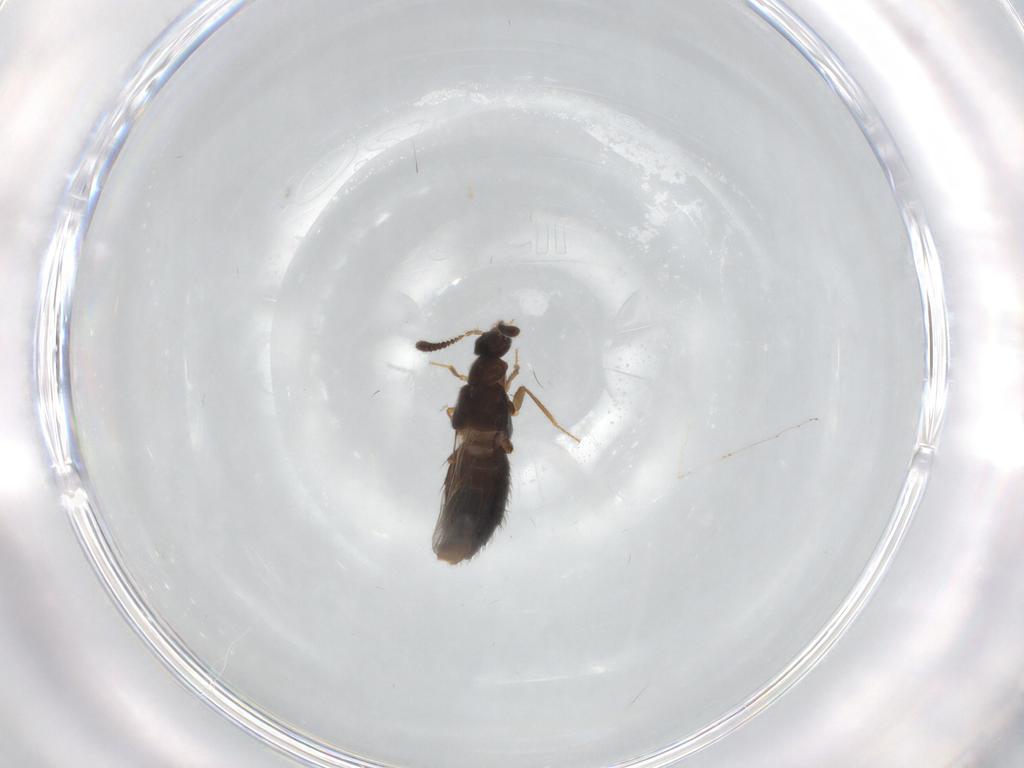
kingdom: Animalia
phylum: Arthropoda
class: Insecta
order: Coleoptera
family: Staphylinidae
